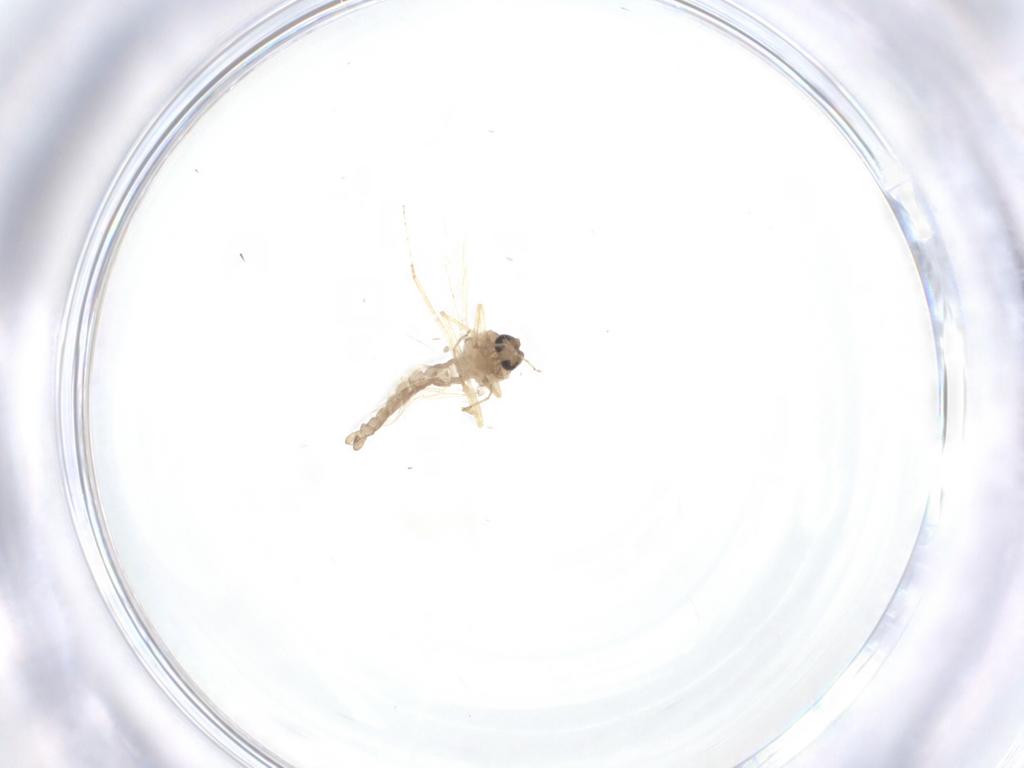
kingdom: Animalia
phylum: Arthropoda
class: Insecta
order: Diptera
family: Ceratopogonidae
